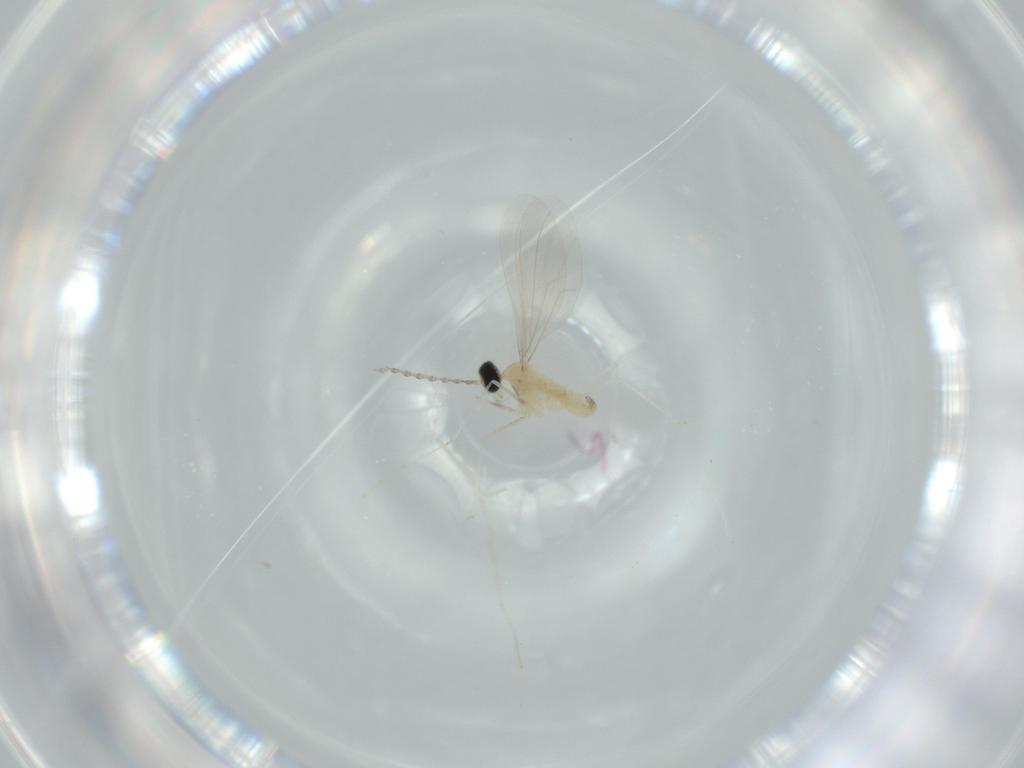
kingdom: Animalia
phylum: Arthropoda
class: Insecta
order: Diptera
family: Cecidomyiidae
